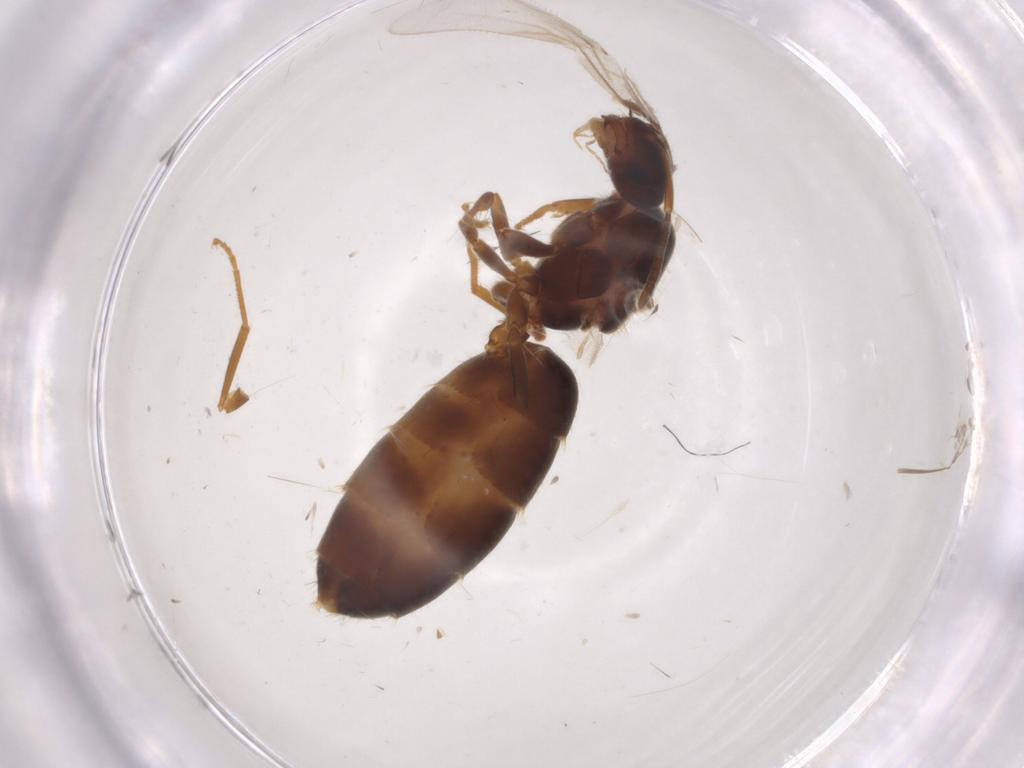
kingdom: Animalia
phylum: Arthropoda
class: Insecta
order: Hymenoptera
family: Formicidae
